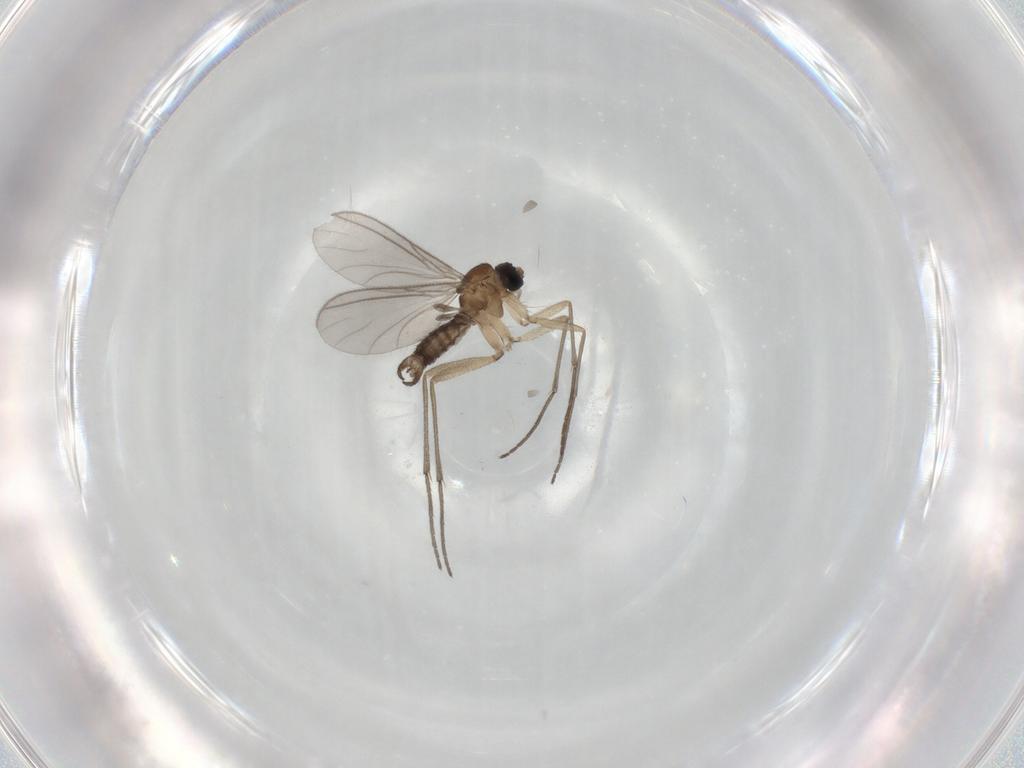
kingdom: Animalia
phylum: Arthropoda
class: Insecta
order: Diptera
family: Sciaridae
